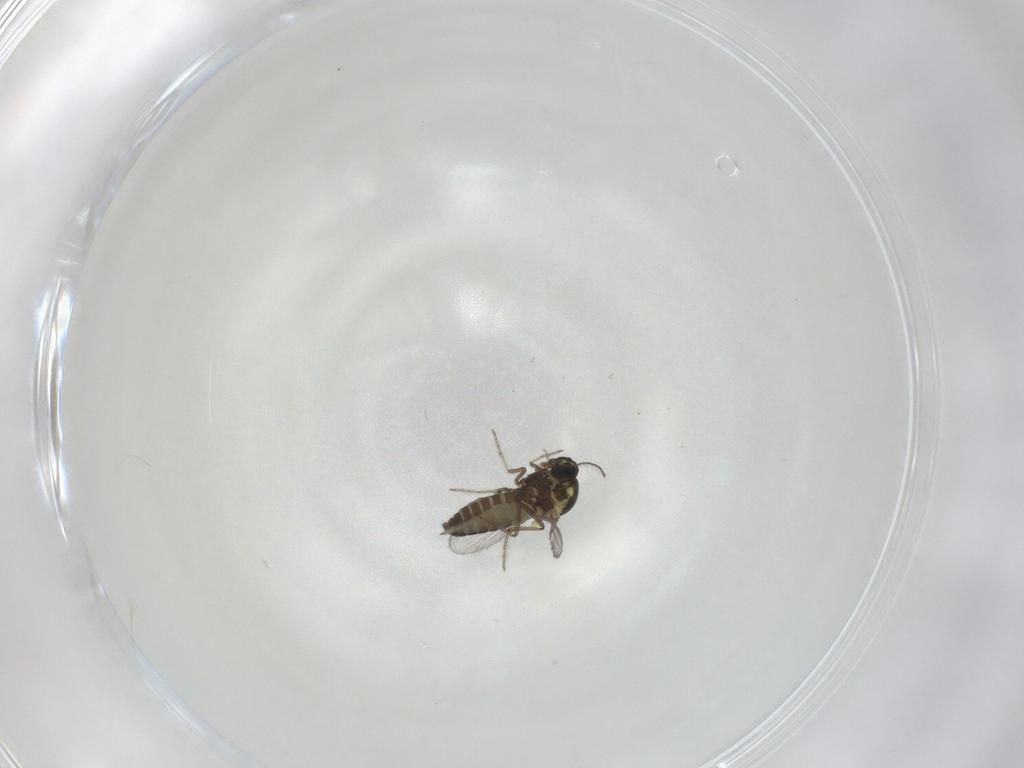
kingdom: Animalia
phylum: Arthropoda
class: Insecta
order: Diptera
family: Ceratopogonidae
